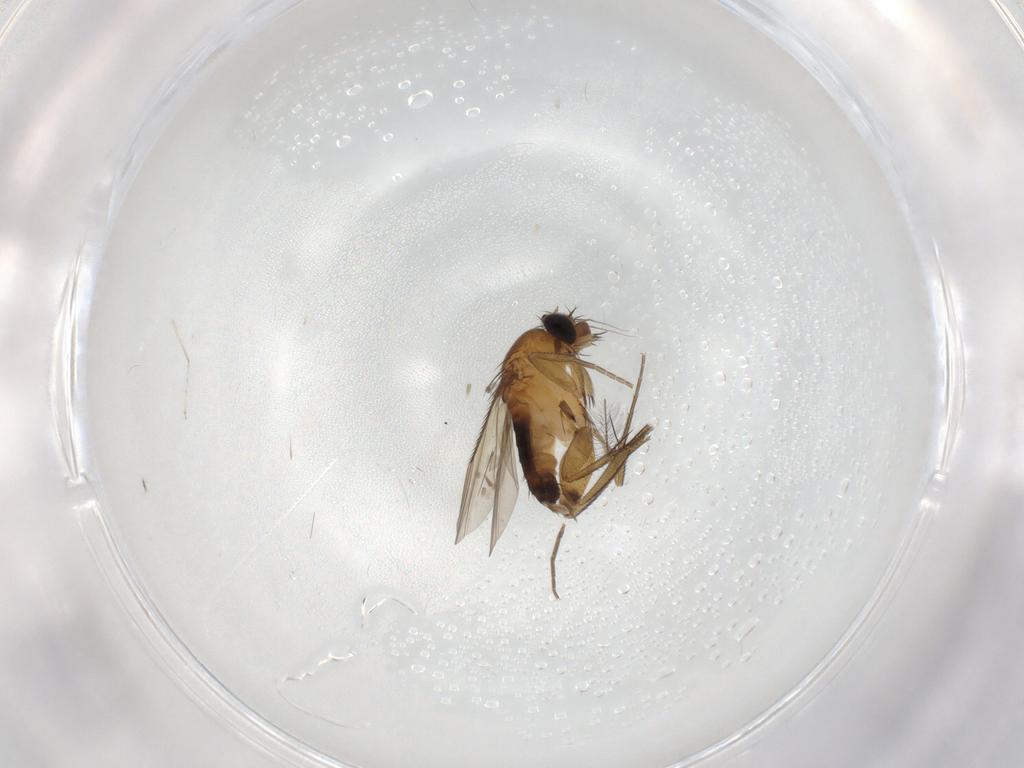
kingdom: Animalia
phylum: Arthropoda
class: Insecta
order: Diptera
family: Phoridae
